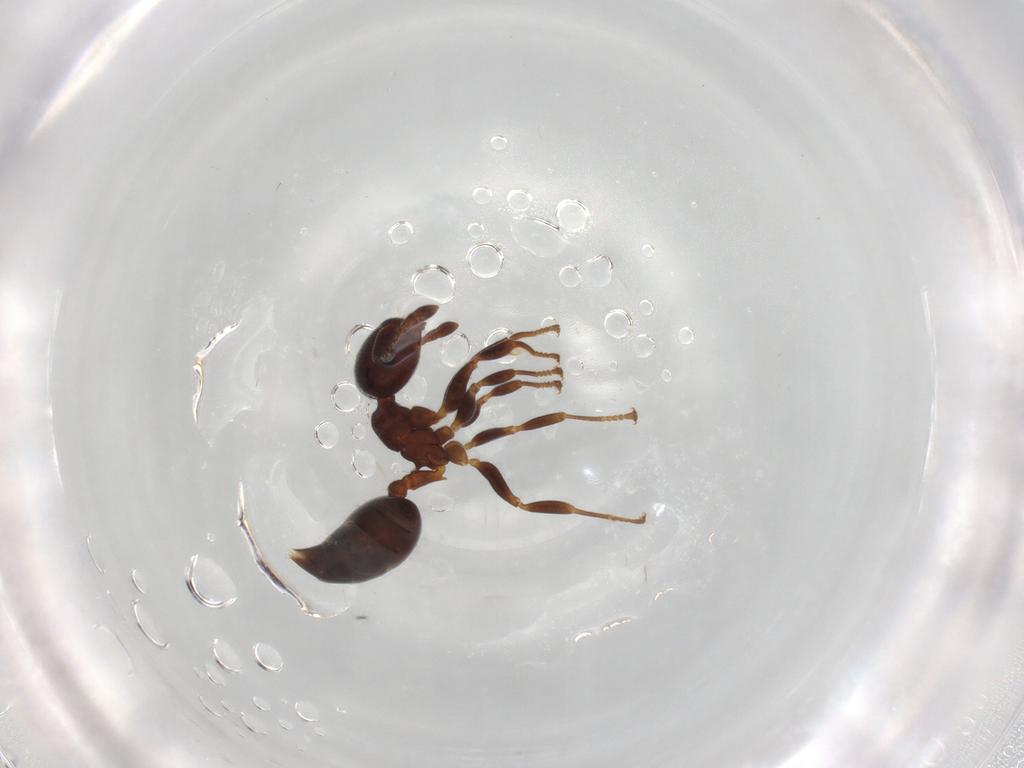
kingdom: Animalia
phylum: Arthropoda
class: Insecta
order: Hymenoptera
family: Formicidae
